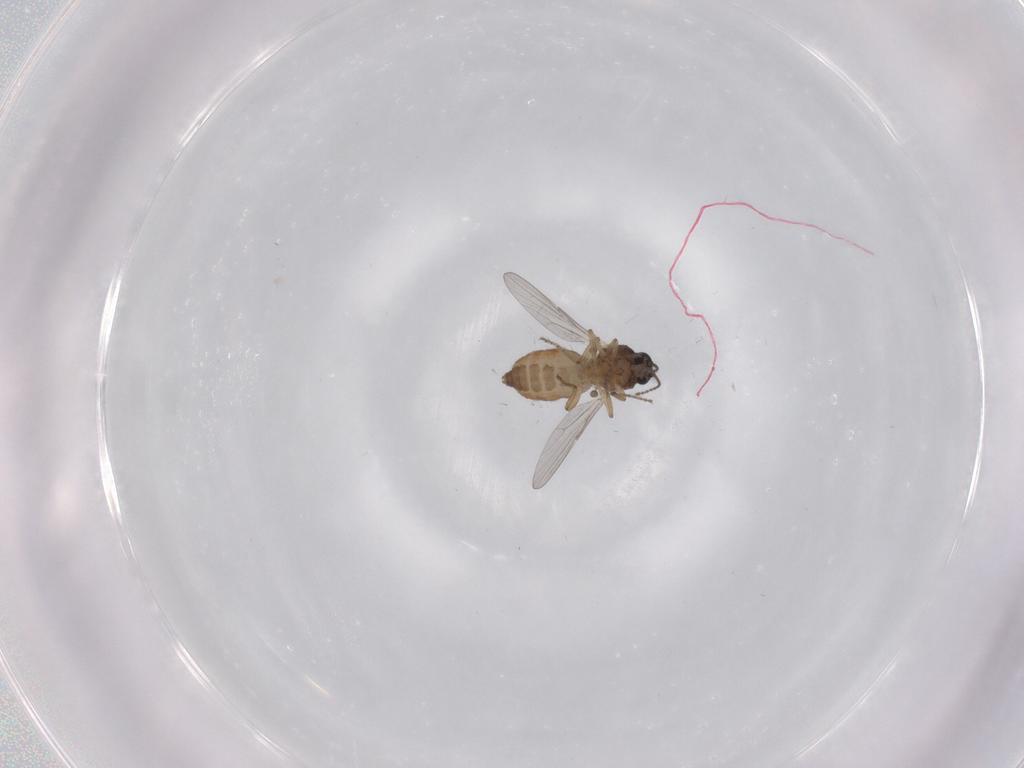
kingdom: Animalia
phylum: Arthropoda
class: Insecta
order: Diptera
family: Ceratopogonidae
